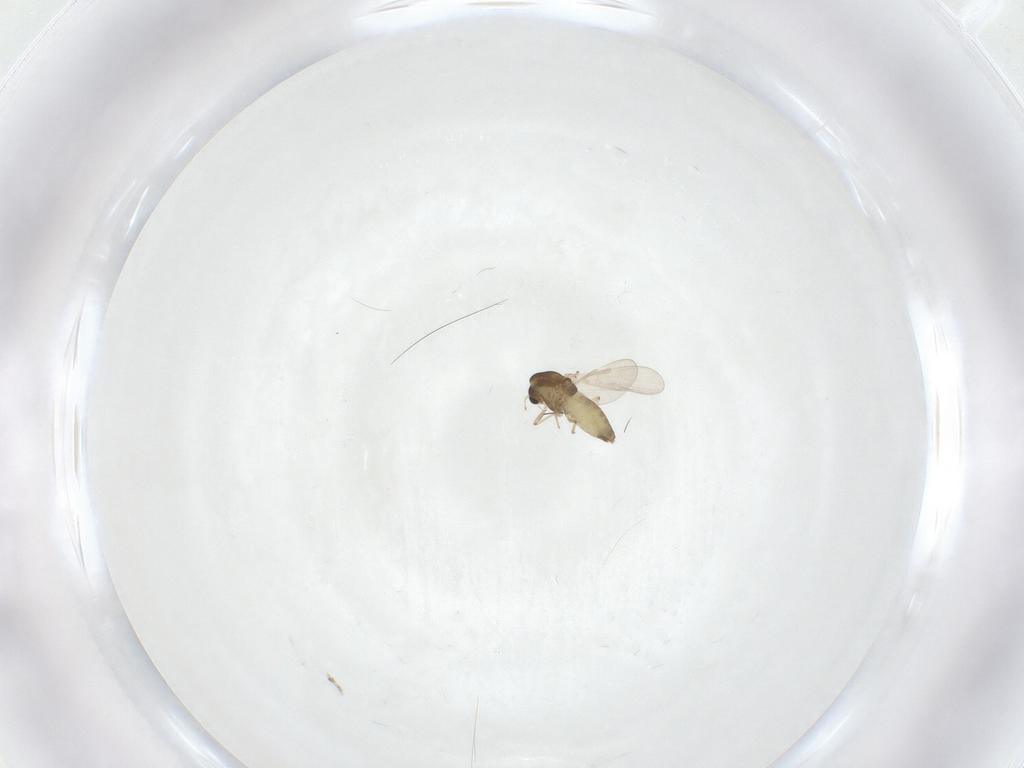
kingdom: Animalia
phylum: Arthropoda
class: Insecta
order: Diptera
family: Chironomidae
